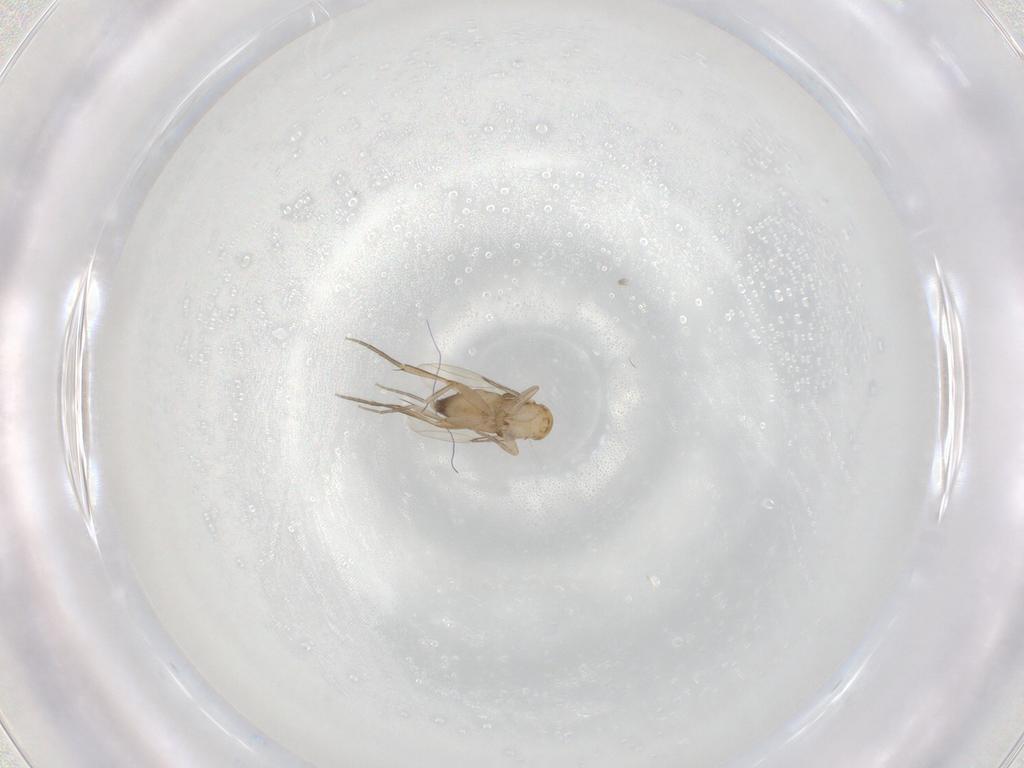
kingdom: Animalia
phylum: Arthropoda
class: Insecta
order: Diptera
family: Phoridae
